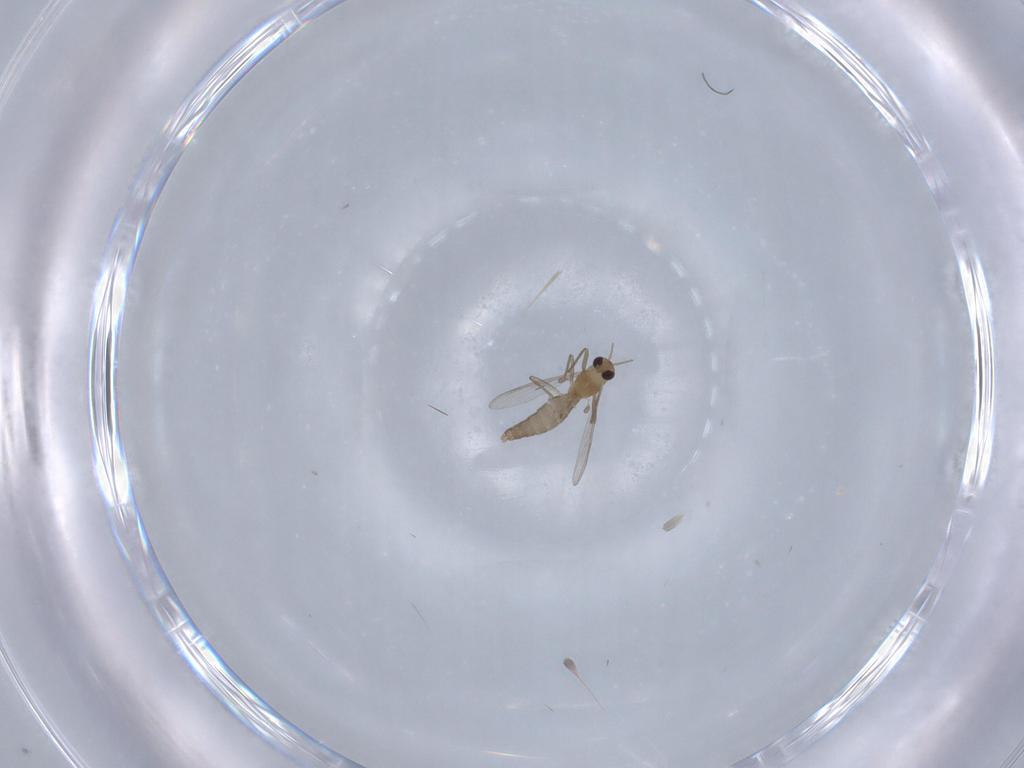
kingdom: Animalia
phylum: Arthropoda
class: Insecta
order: Diptera
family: Chironomidae
